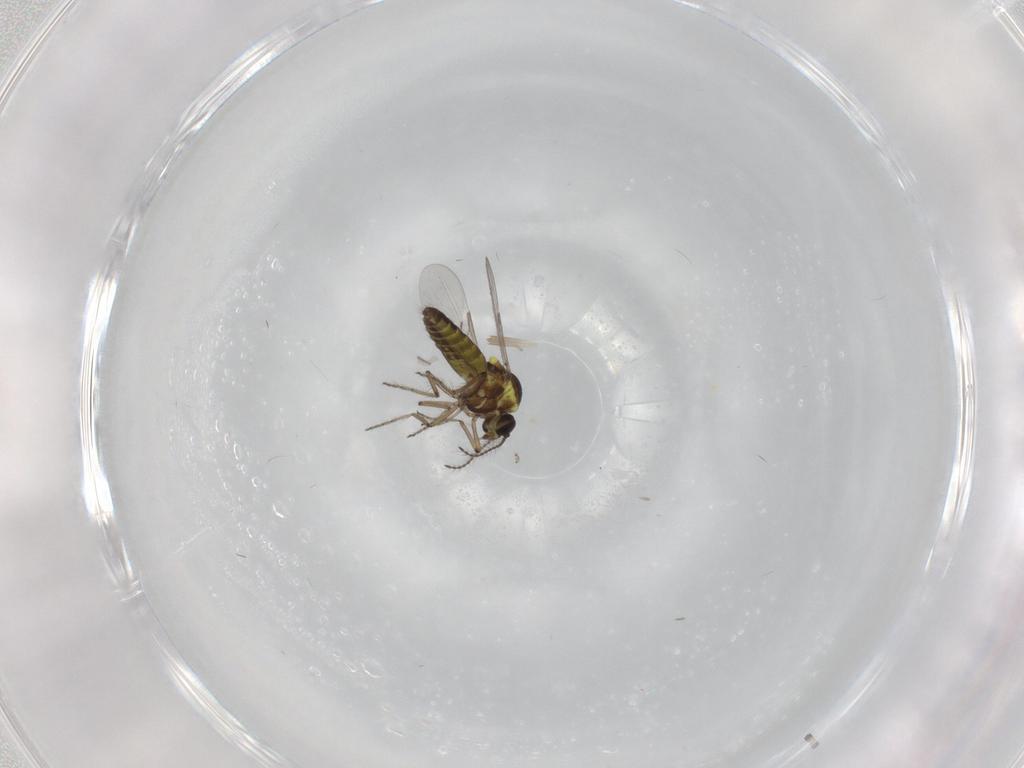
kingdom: Animalia
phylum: Arthropoda
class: Insecta
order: Diptera
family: Ceratopogonidae
